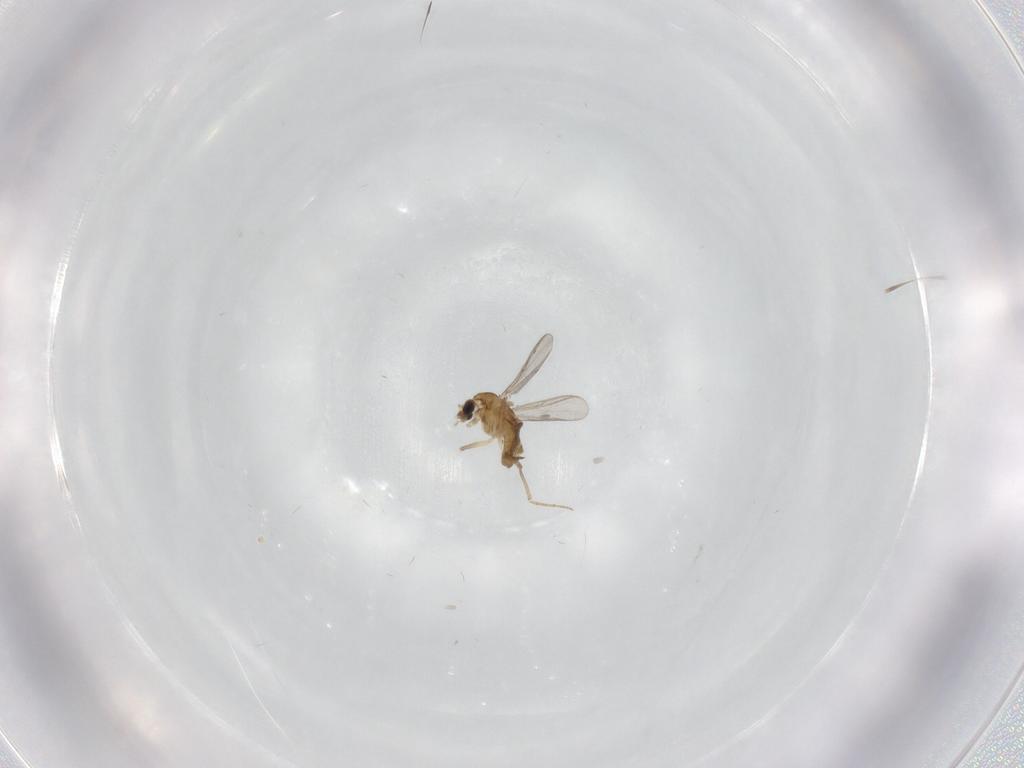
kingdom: Animalia
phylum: Arthropoda
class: Insecta
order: Diptera
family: Chironomidae
